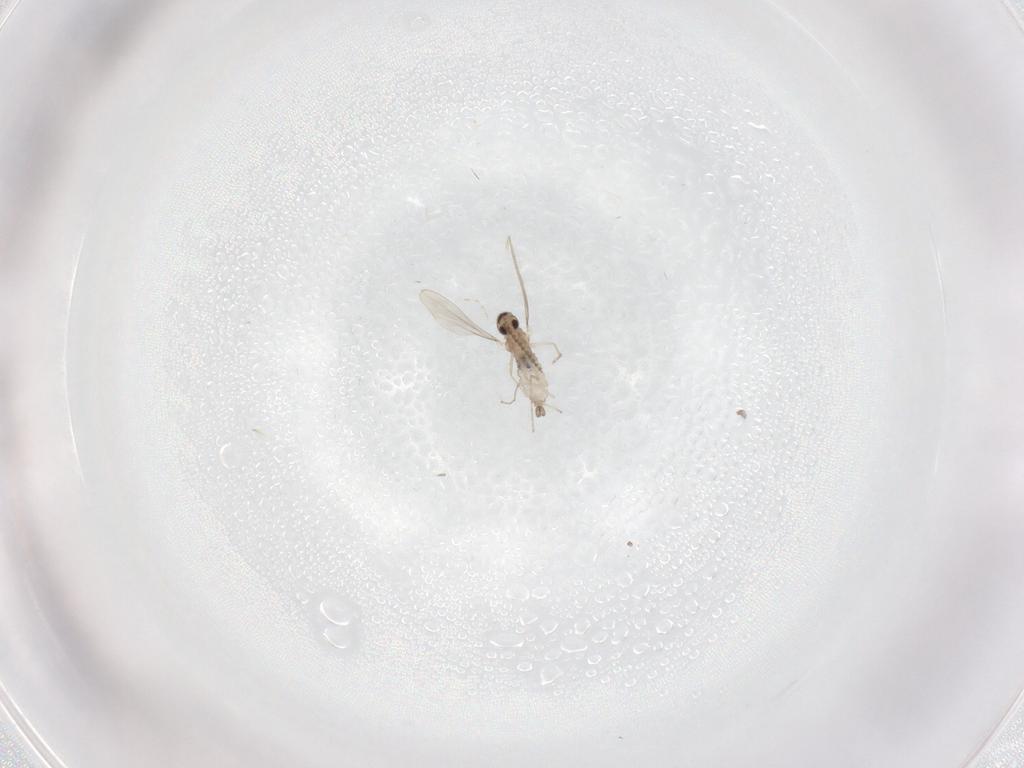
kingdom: Animalia
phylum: Arthropoda
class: Insecta
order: Diptera
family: Cecidomyiidae
